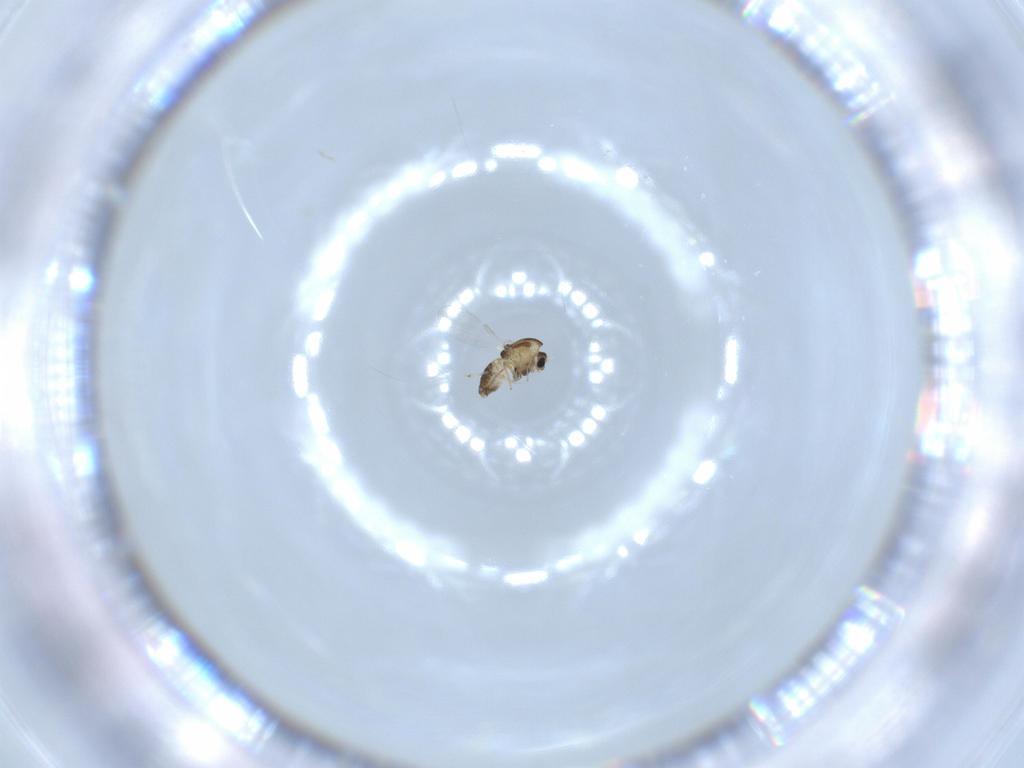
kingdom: Animalia
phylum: Arthropoda
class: Insecta
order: Diptera
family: Chironomidae
